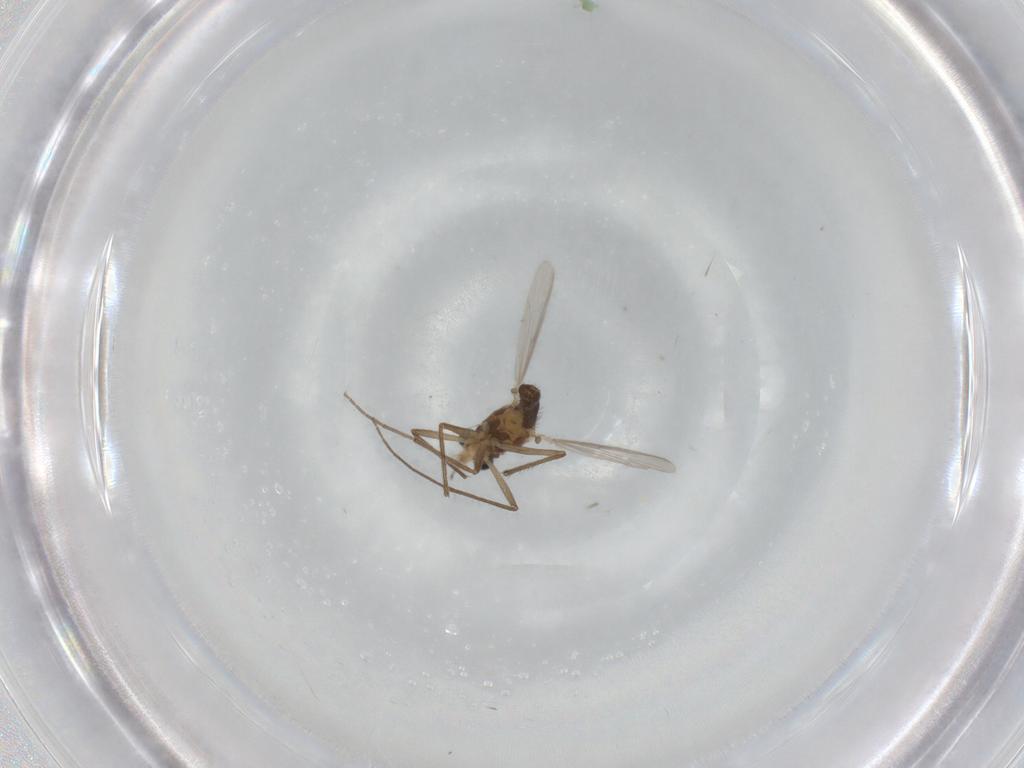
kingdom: Animalia
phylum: Arthropoda
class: Insecta
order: Diptera
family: Chironomidae
